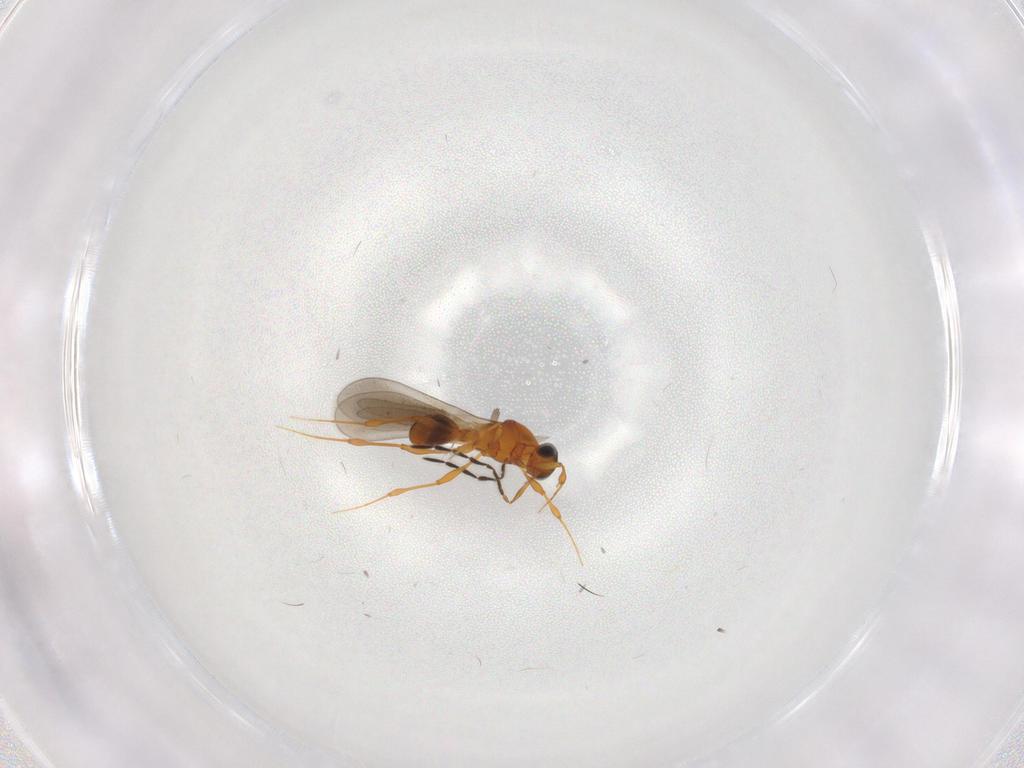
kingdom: Animalia
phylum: Arthropoda
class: Insecta
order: Hymenoptera
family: Platygastridae
